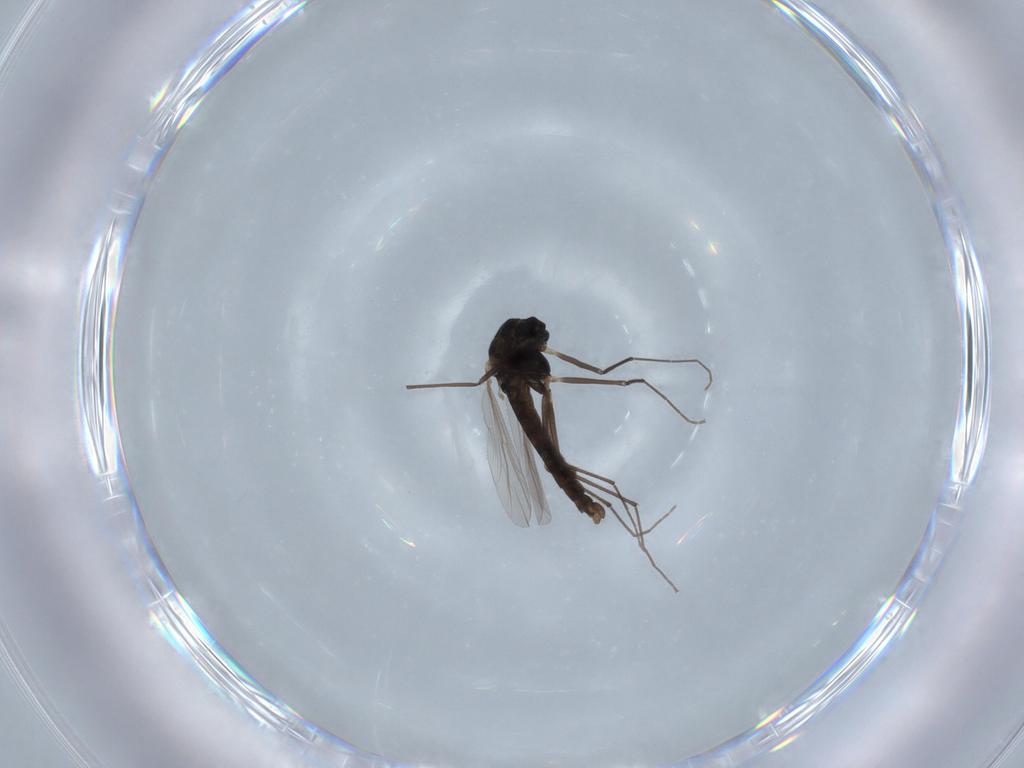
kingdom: Animalia
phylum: Arthropoda
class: Insecta
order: Diptera
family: Chironomidae
